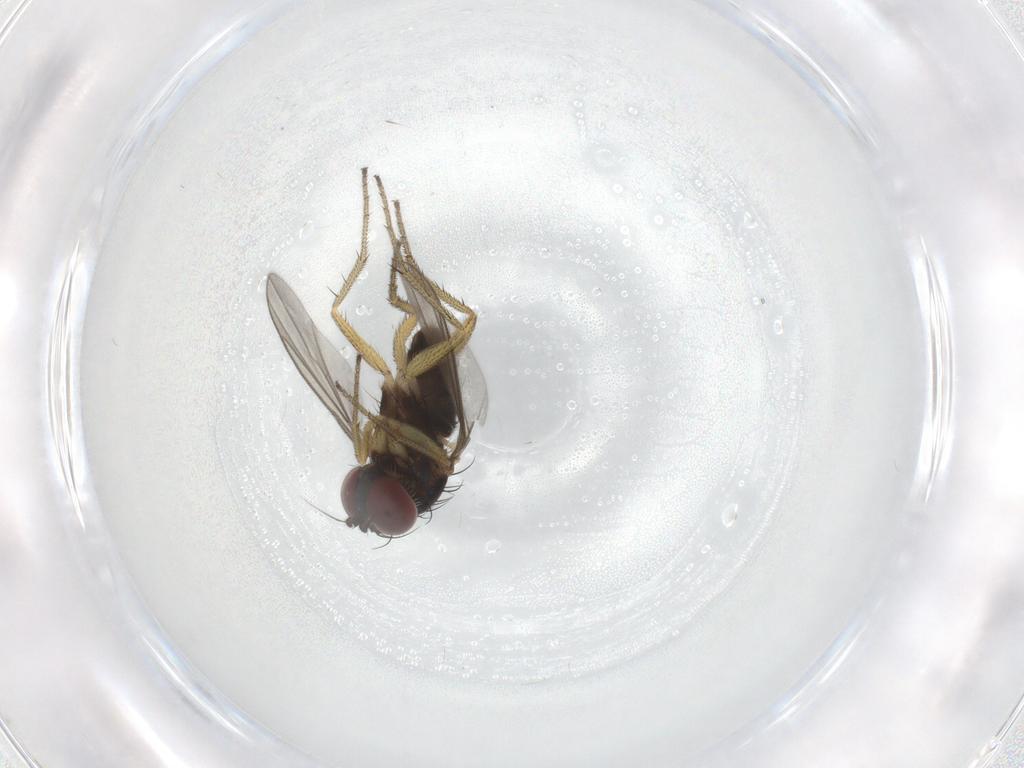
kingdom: Animalia
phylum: Arthropoda
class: Insecta
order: Diptera
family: Dolichopodidae
